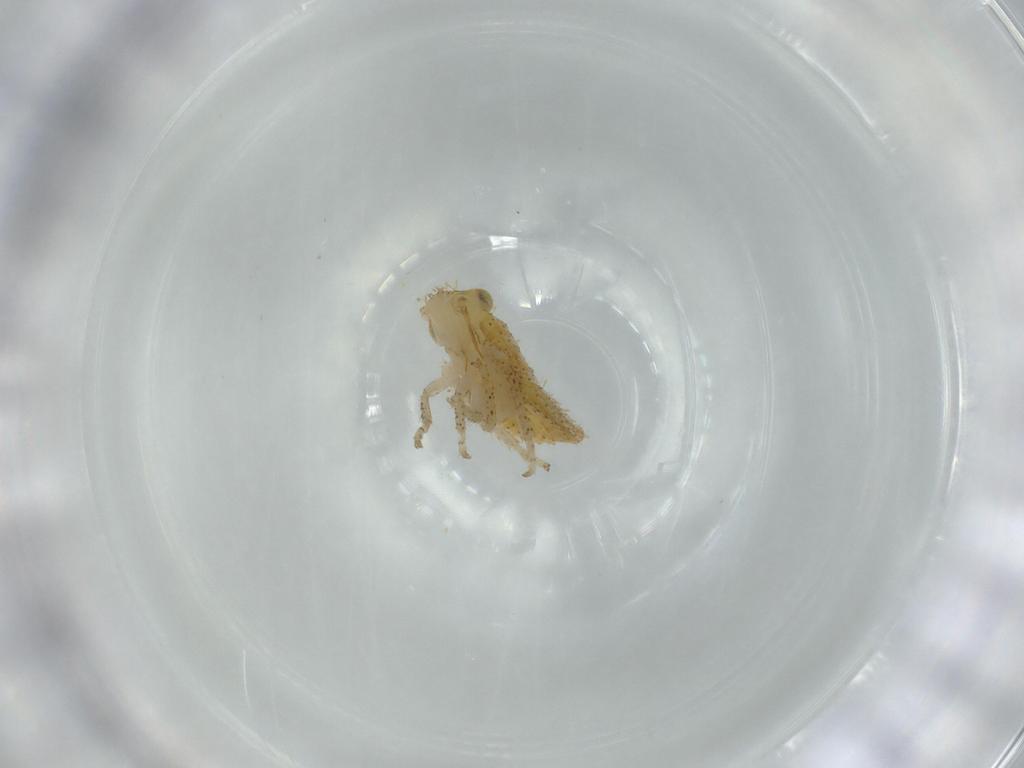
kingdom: Animalia
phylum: Arthropoda
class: Insecta
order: Hemiptera
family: Cicadellidae
